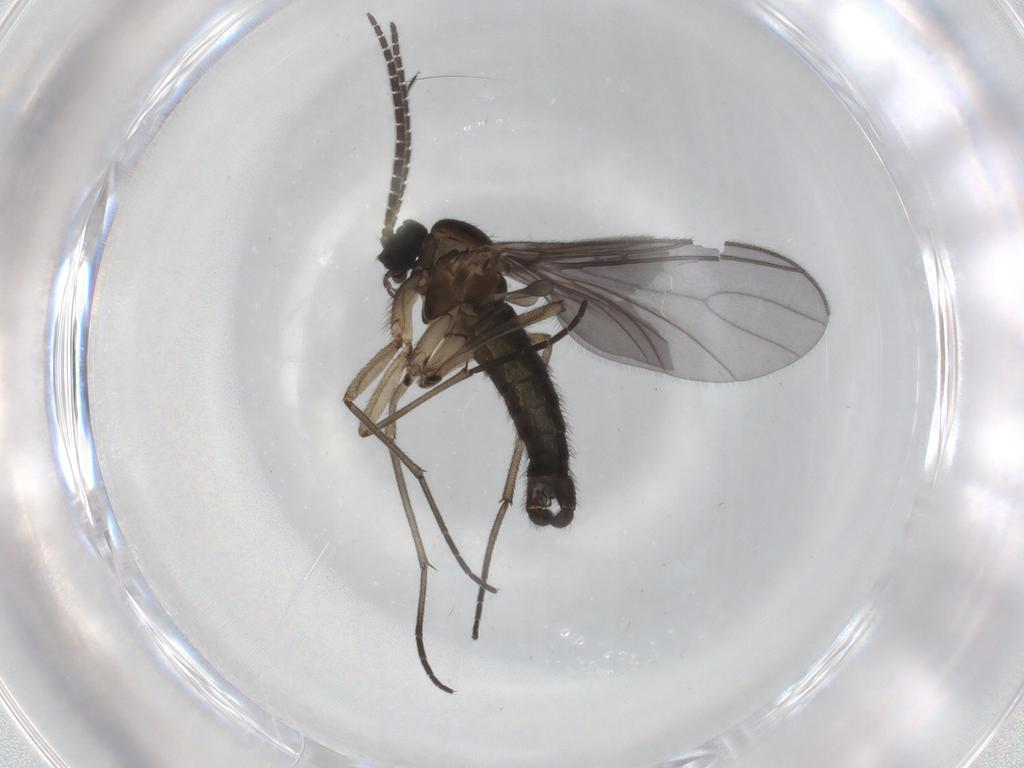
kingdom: Animalia
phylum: Arthropoda
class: Insecta
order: Diptera
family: Sciaridae
